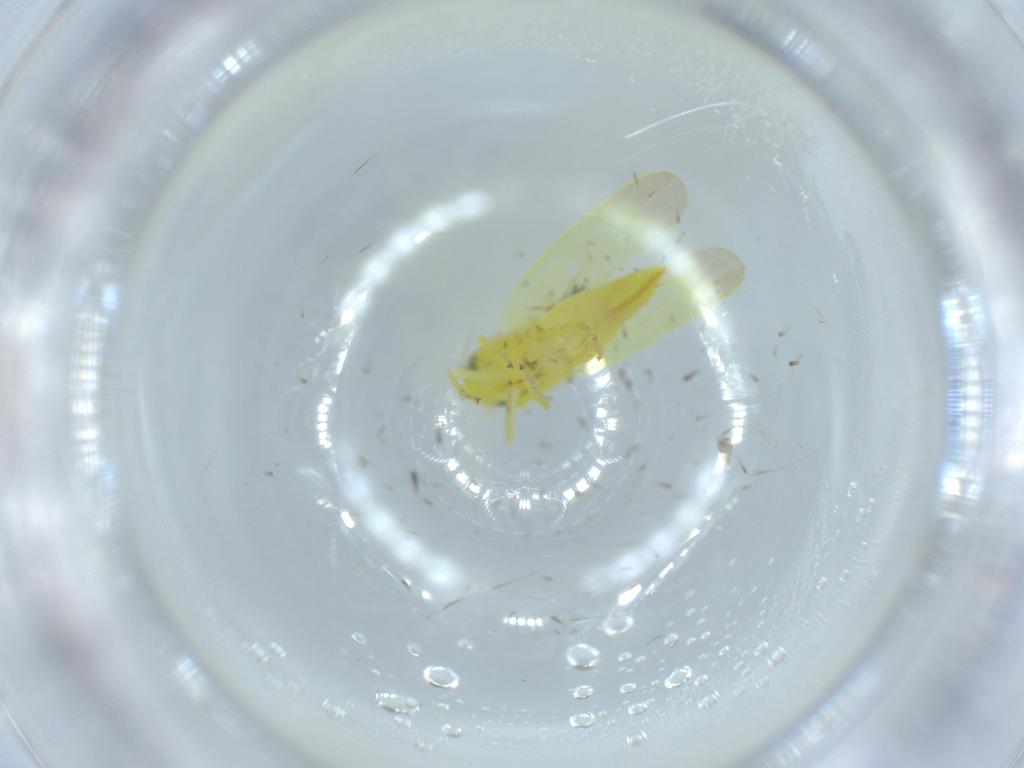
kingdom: Animalia
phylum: Arthropoda
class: Insecta
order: Hemiptera
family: Cicadellidae
